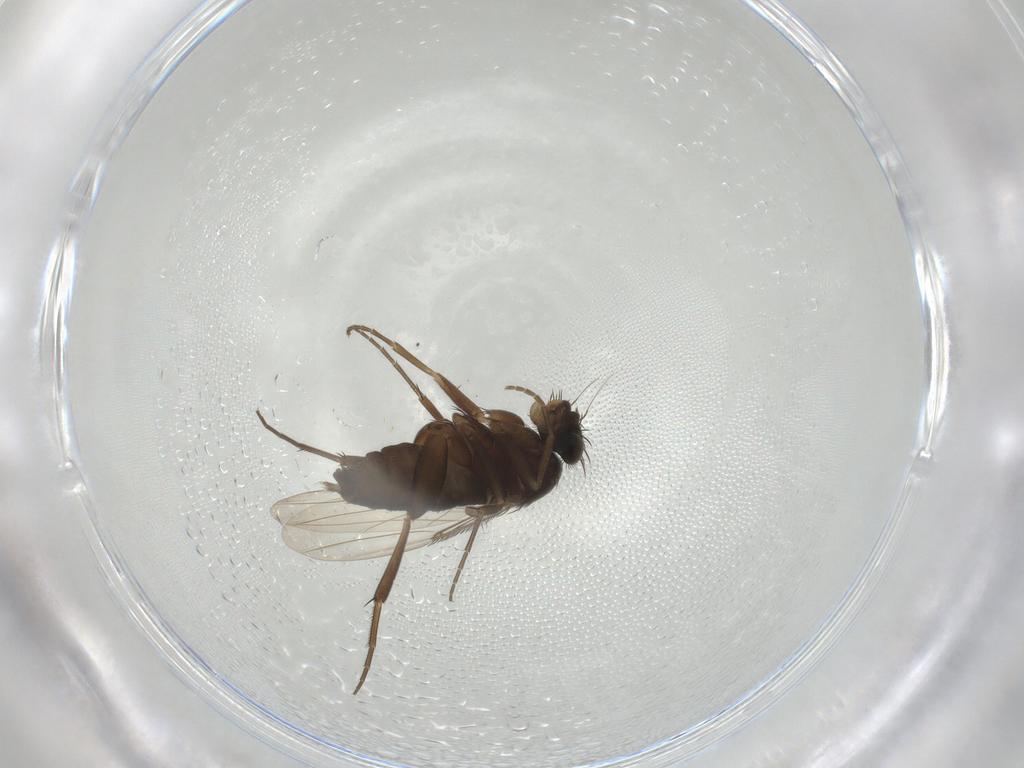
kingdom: Animalia
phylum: Arthropoda
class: Insecta
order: Diptera
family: Phoridae
